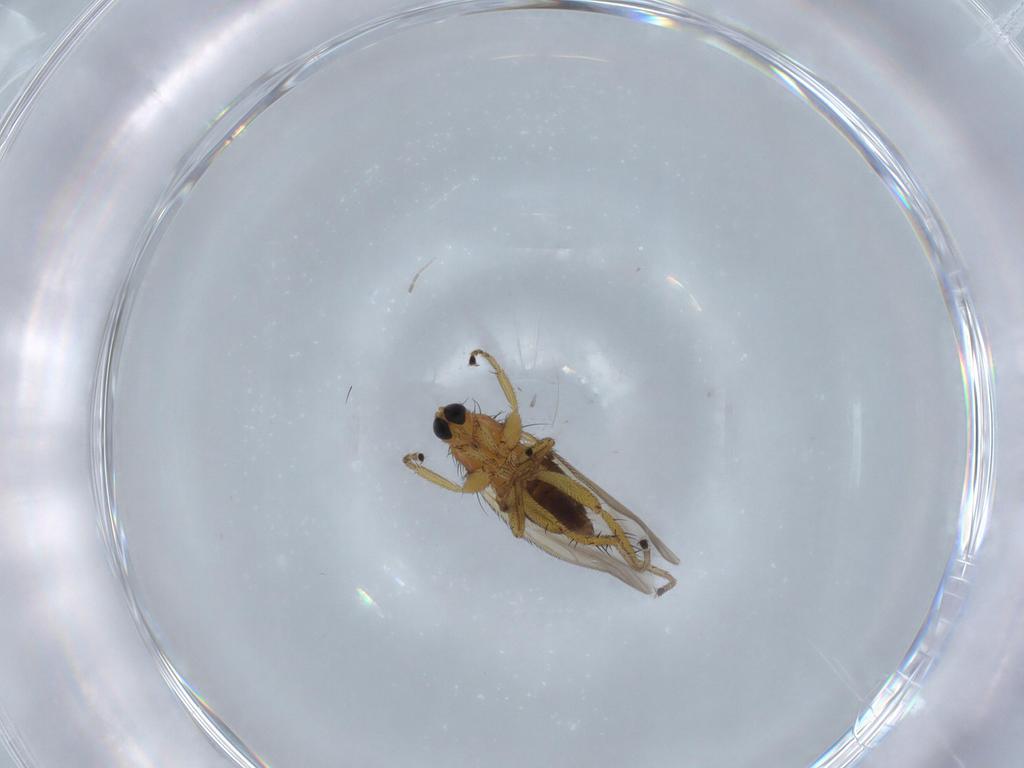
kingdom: Animalia
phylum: Arthropoda
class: Insecta
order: Diptera
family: Hybotidae
